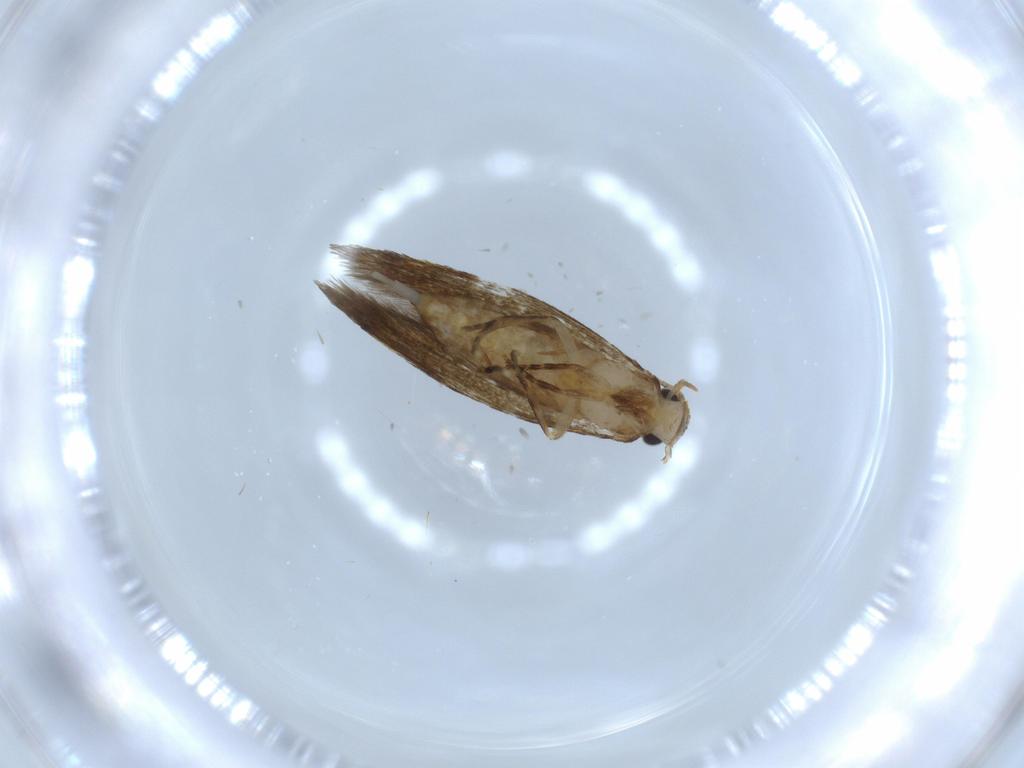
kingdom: Animalia
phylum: Arthropoda
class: Insecta
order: Lepidoptera
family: Tineidae
